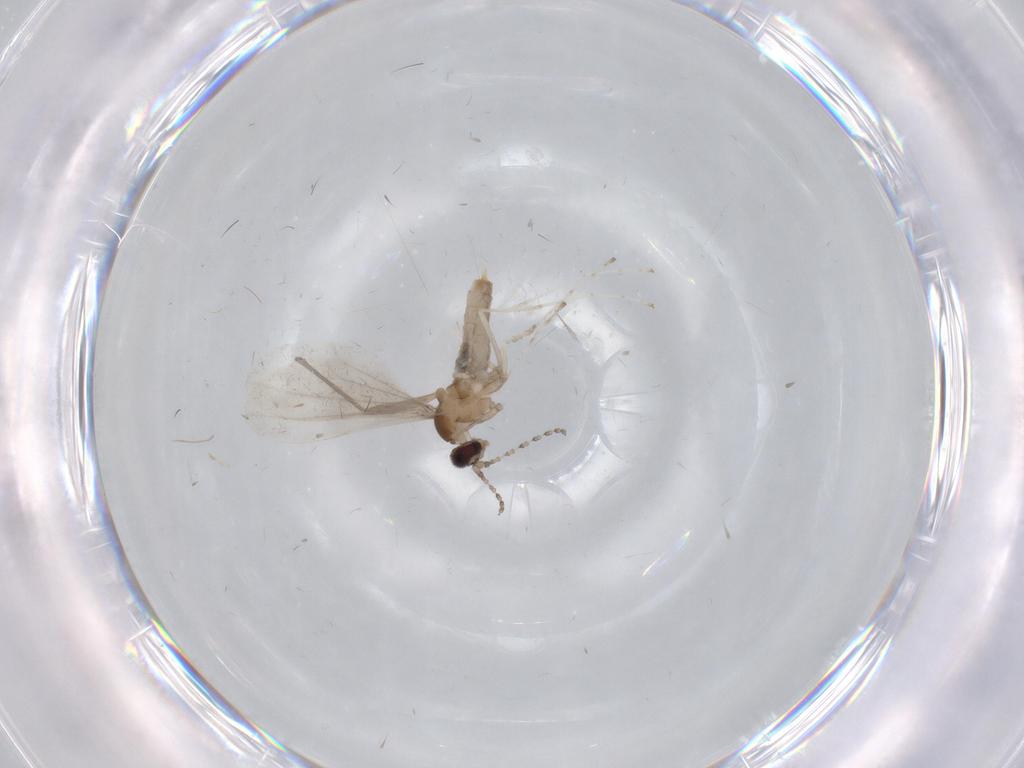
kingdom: Animalia
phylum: Arthropoda
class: Insecta
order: Diptera
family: Cecidomyiidae
